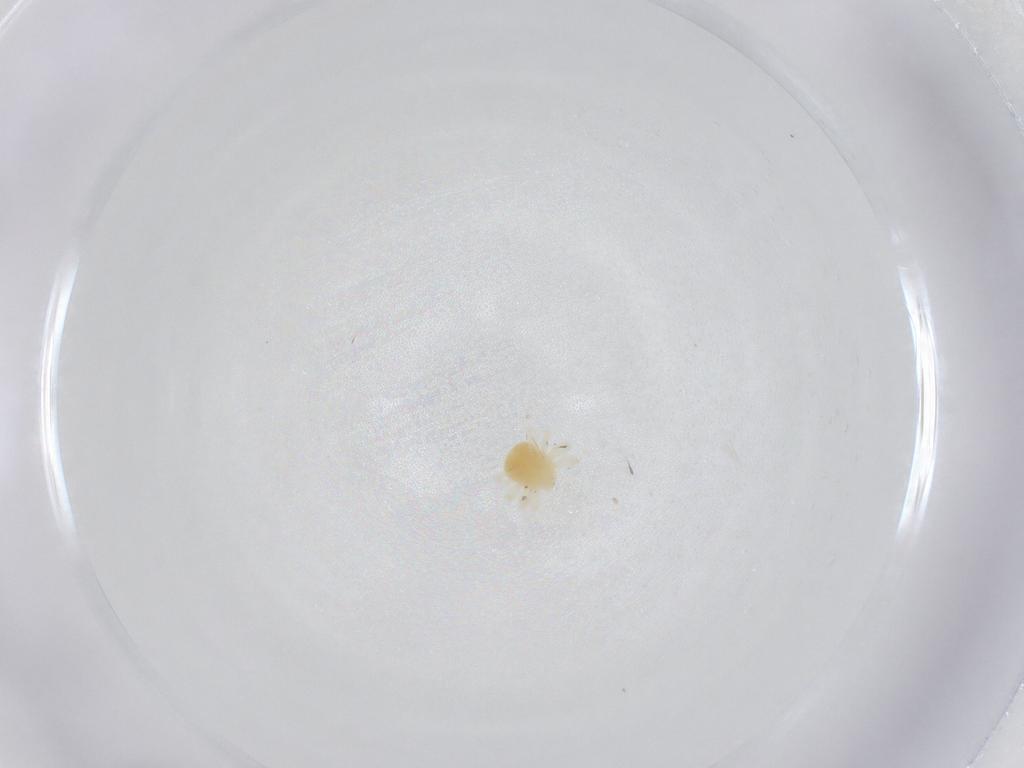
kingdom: Animalia
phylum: Arthropoda
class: Arachnida
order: Trombidiformes
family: Anystidae
